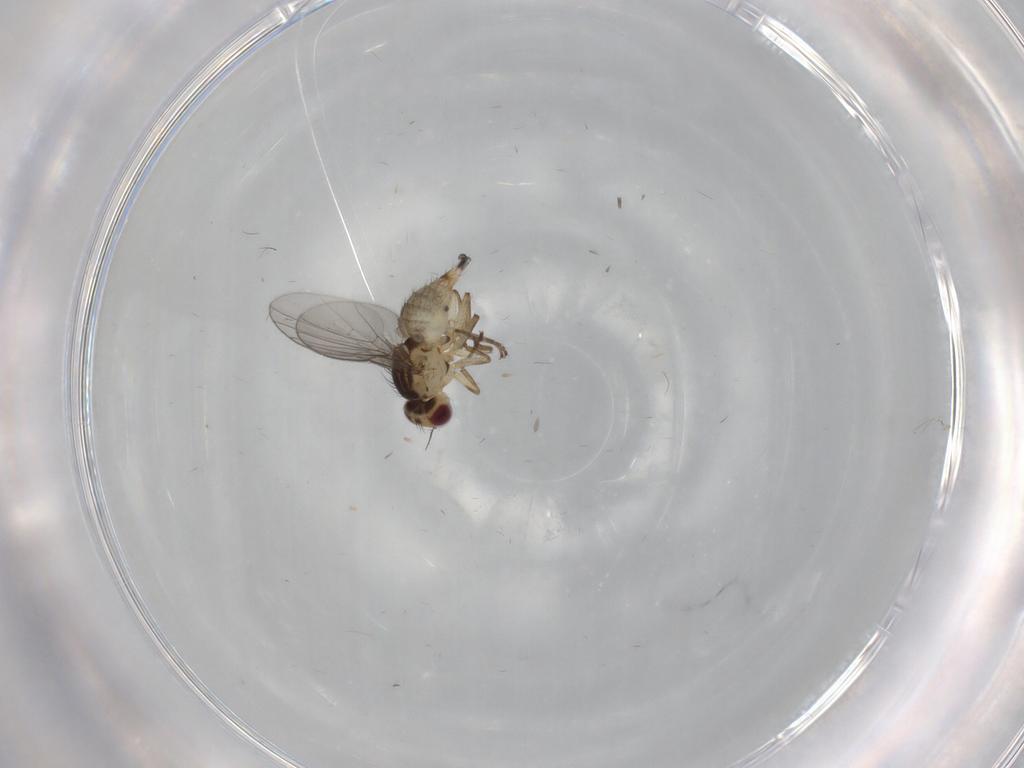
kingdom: Animalia
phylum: Arthropoda
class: Insecta
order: Diptera
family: Agromyzidae
